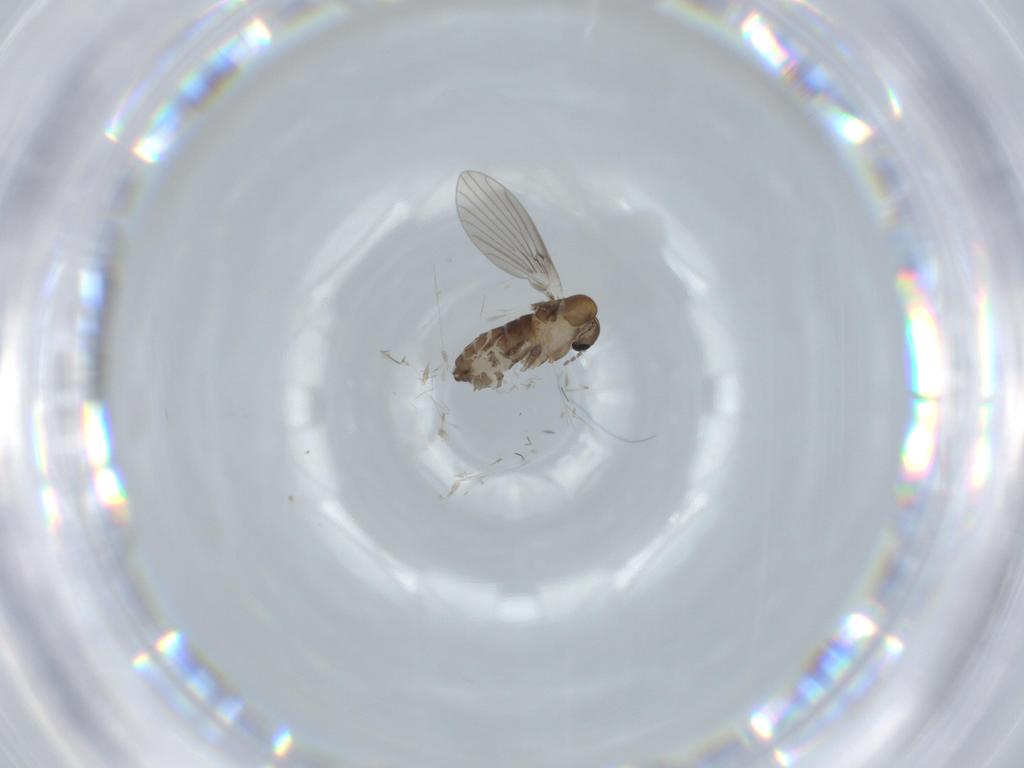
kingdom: Animalia
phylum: Arthropoda
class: Insecta
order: Diptera
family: Psychodidae
